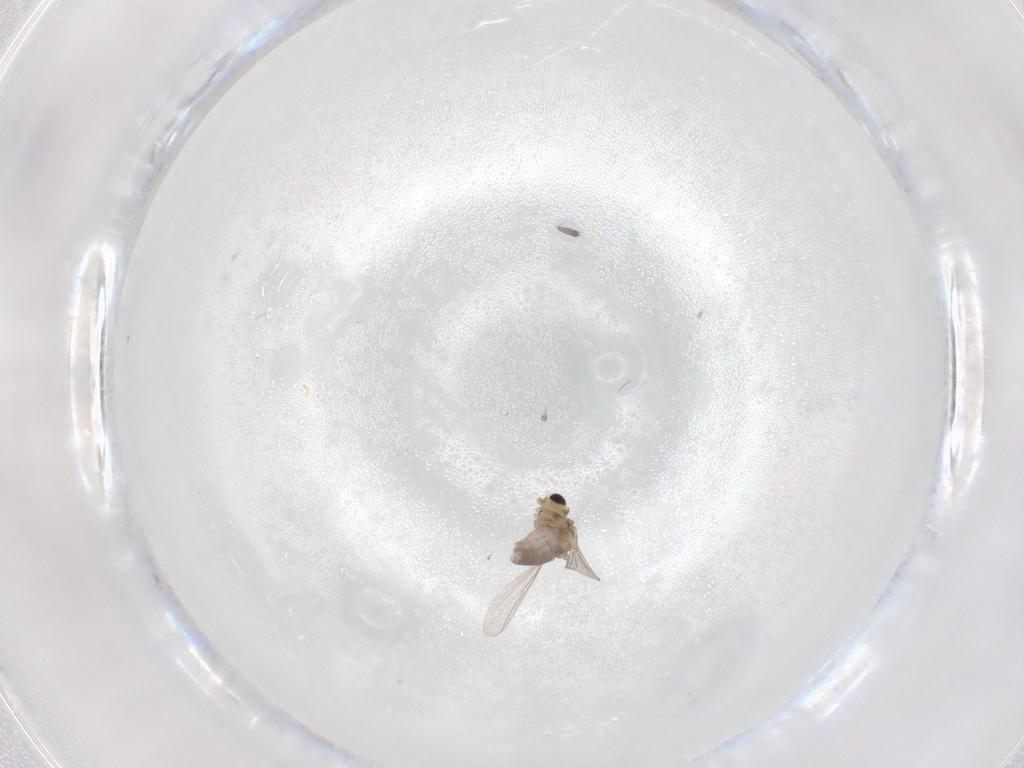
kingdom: Animalia
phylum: Arthropoda
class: Insecta
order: Diptera
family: Chironomidae
